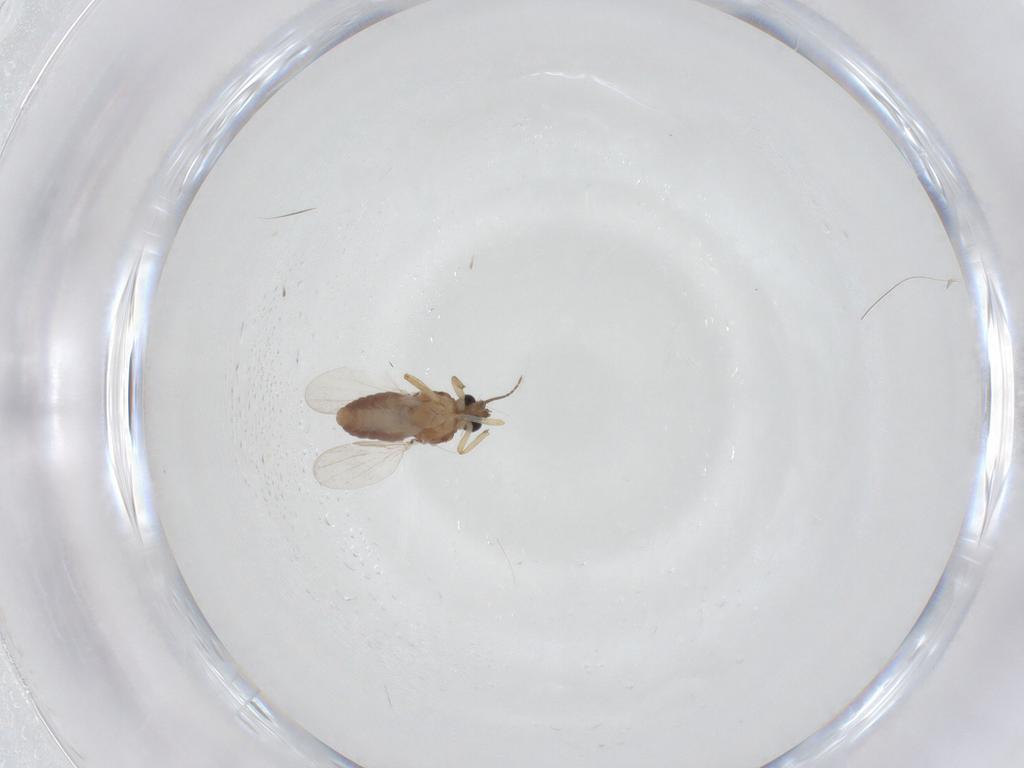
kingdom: Animalia
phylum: Arthropoda
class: Insecta
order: Diptera
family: Ceratopogonidae
